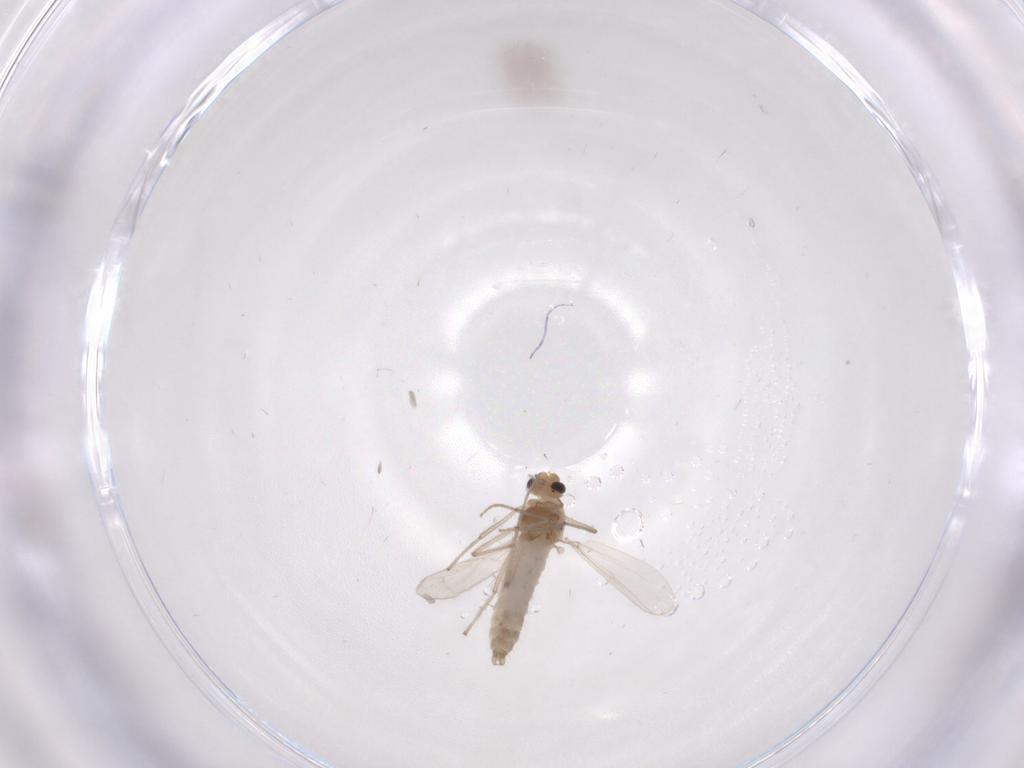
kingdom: Animalia
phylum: Arthropoda
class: Insecta
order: Diptera
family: Chironomidae
